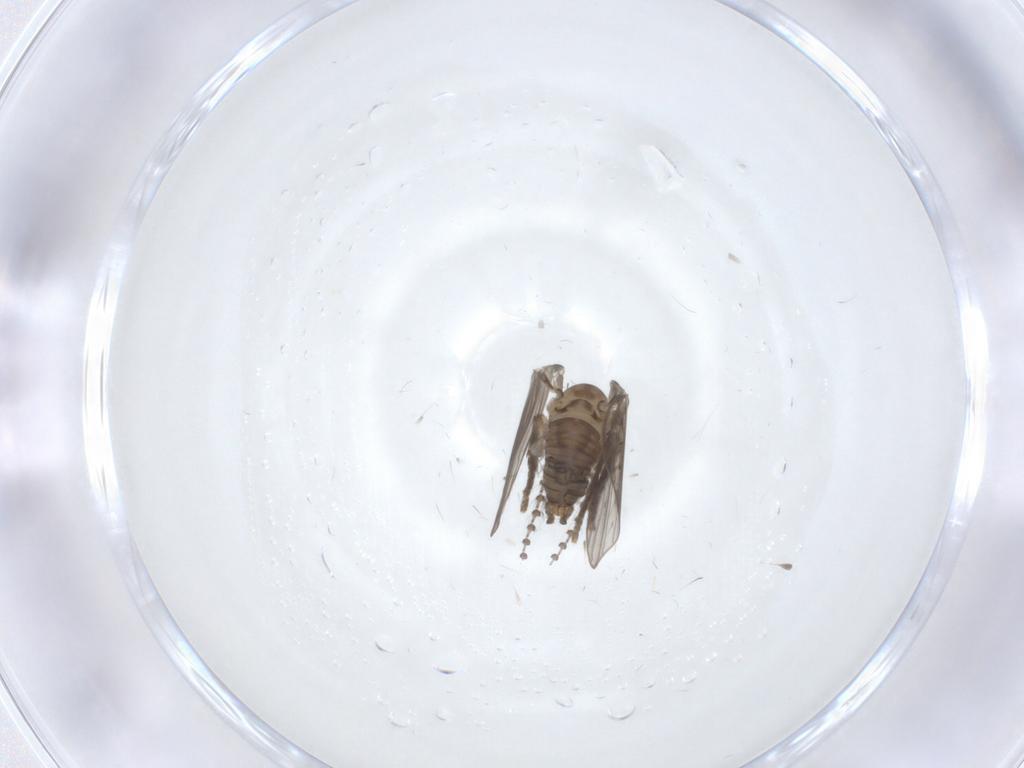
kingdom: Animalia
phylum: Arthropoda
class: Insecta
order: Diptera
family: Psychodidae
